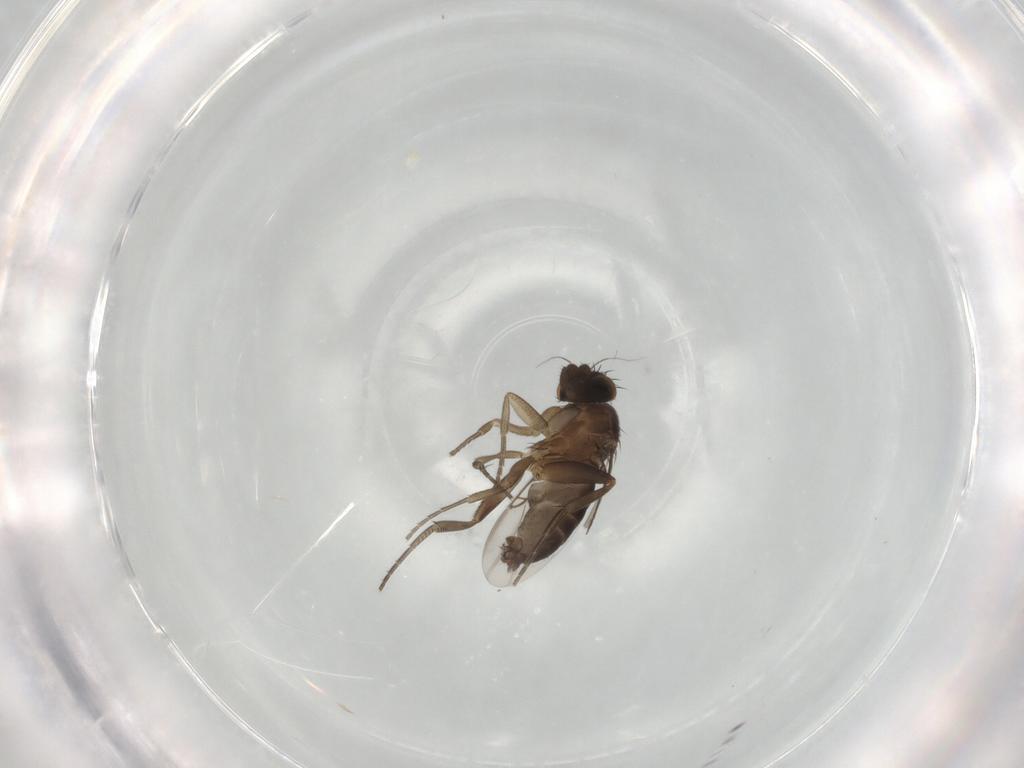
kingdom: Animalia
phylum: Arthropoda
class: Insecta
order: Diptera
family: Phoridae
